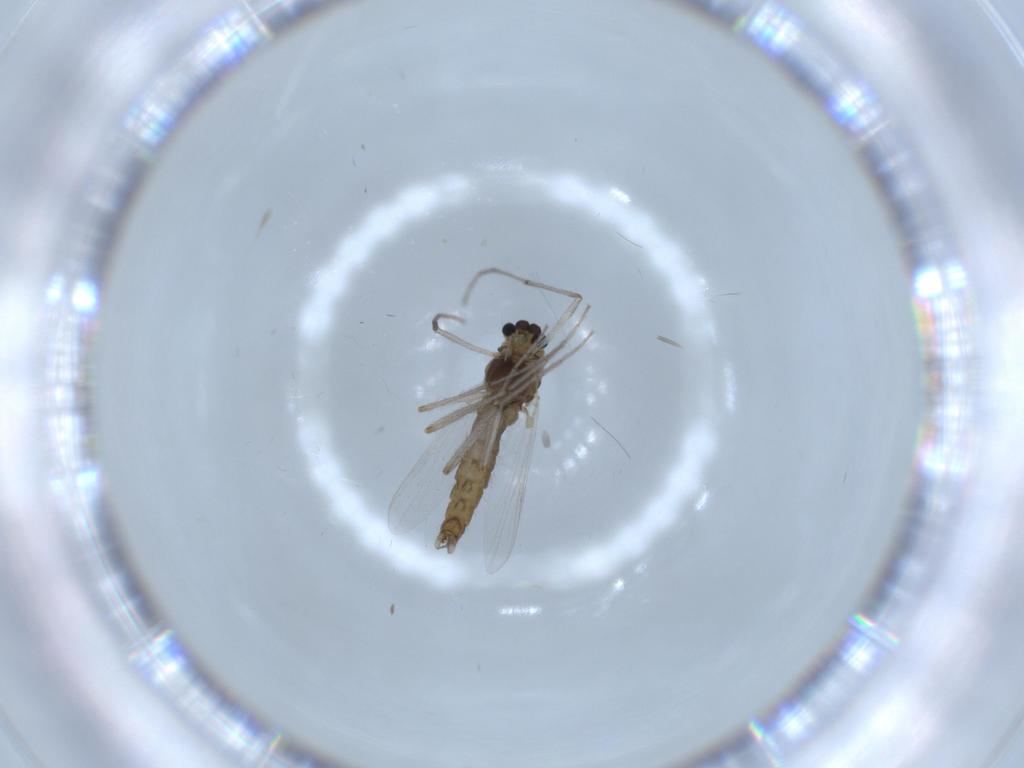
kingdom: Animalia
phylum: Arthropoda
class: Insecta
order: Diptera
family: Chironomidae
